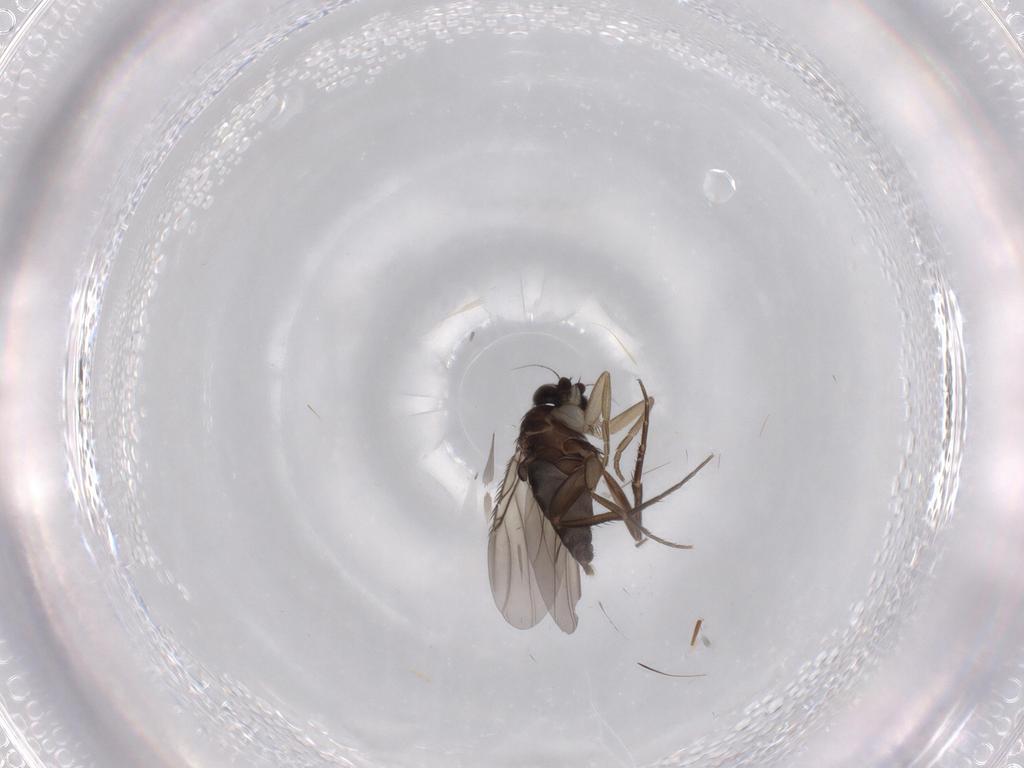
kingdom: Animalia
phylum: Arthropoda
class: Insecta
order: Diptera
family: Phoridae
